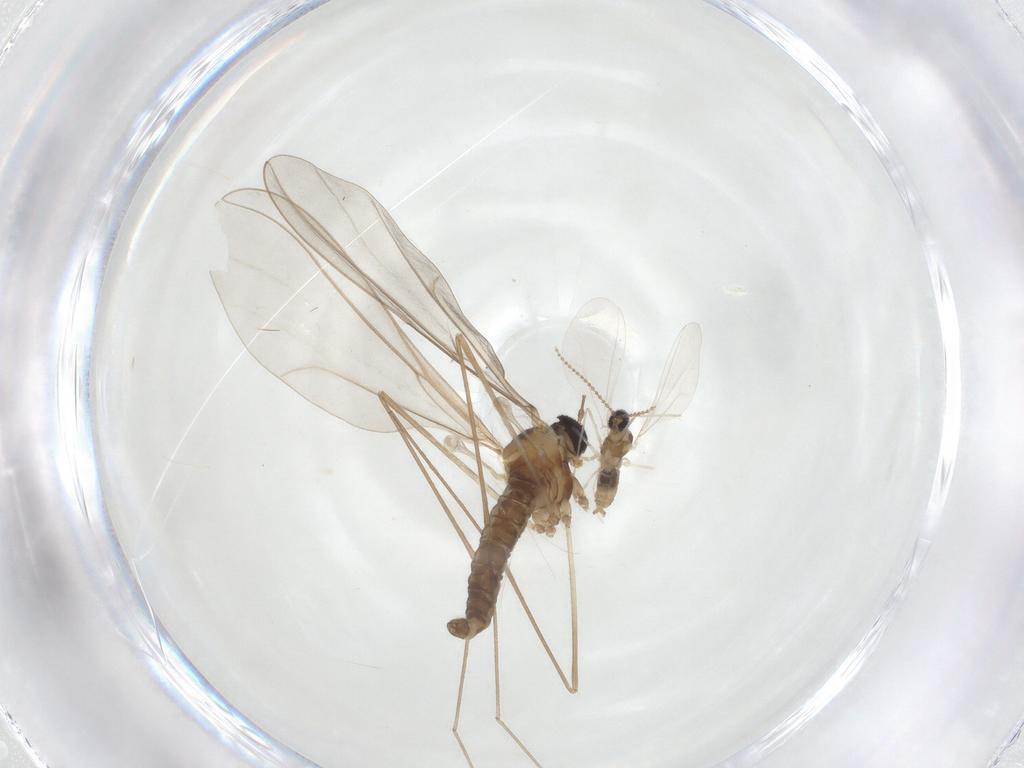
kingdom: Animalia
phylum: Arthropoda
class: Insecta
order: Diptera
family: Cecidomyiidae
